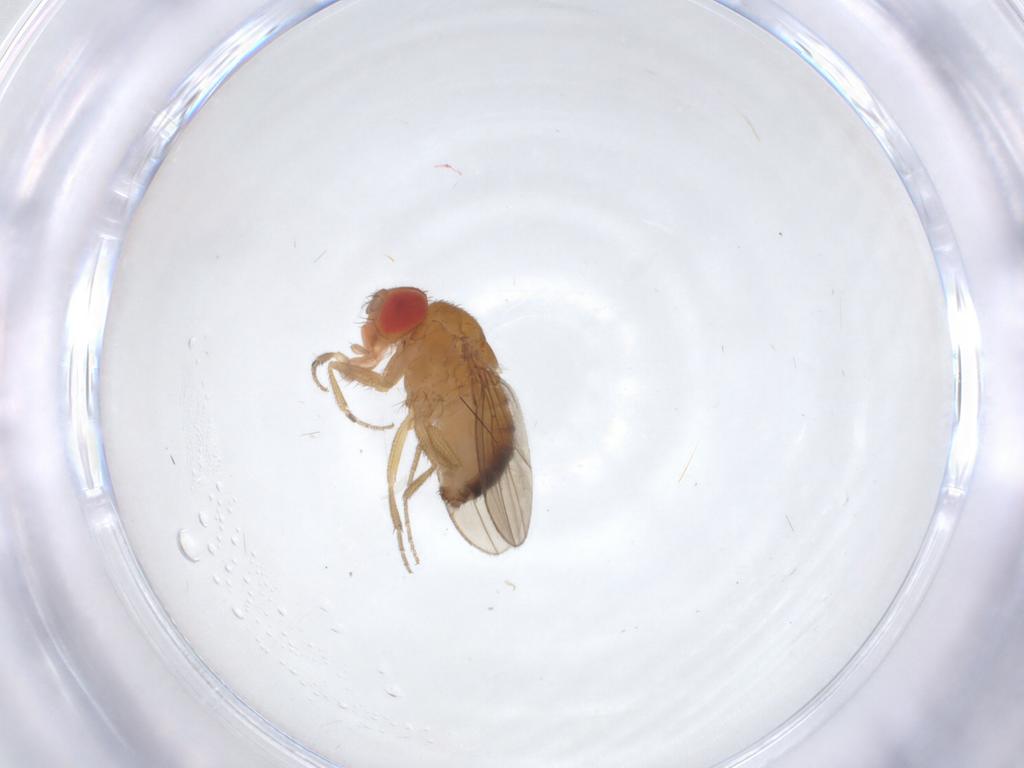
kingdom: Animalia
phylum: Arthropoda
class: Insecta
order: Diptera
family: Drosophilidae
